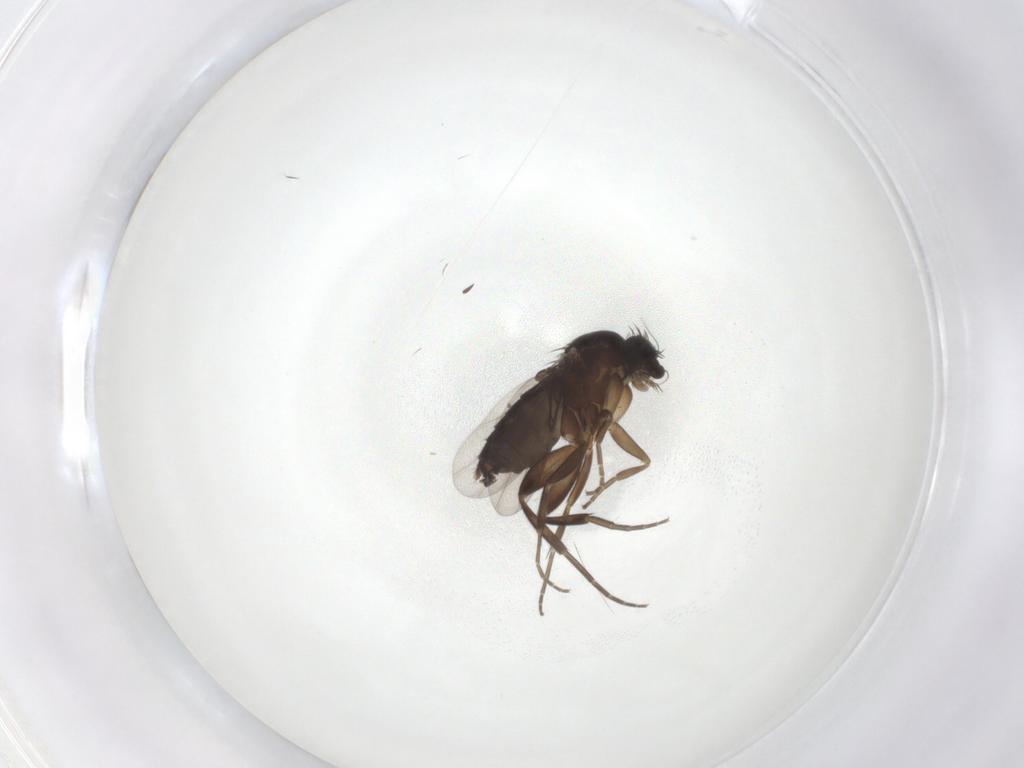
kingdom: Animalia
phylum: Arthropoda
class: Insecta
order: Diptera
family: Phoridae
